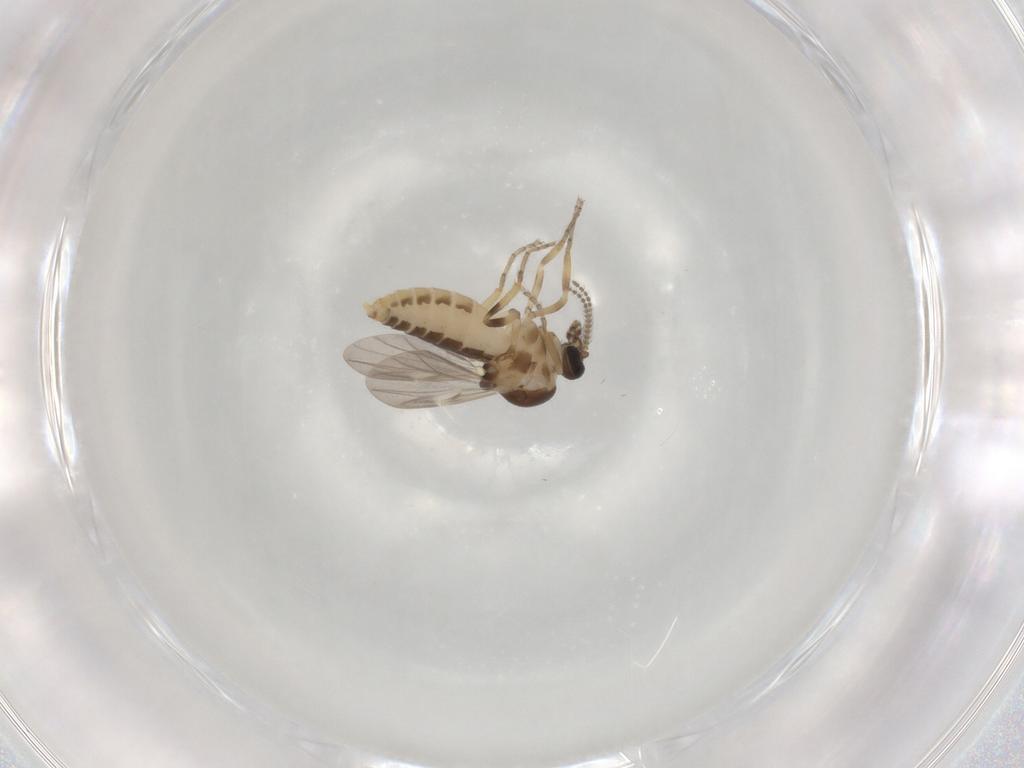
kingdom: Animalia
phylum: Arthropoda
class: Insecta
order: Diptera
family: Ceratopogonidae
